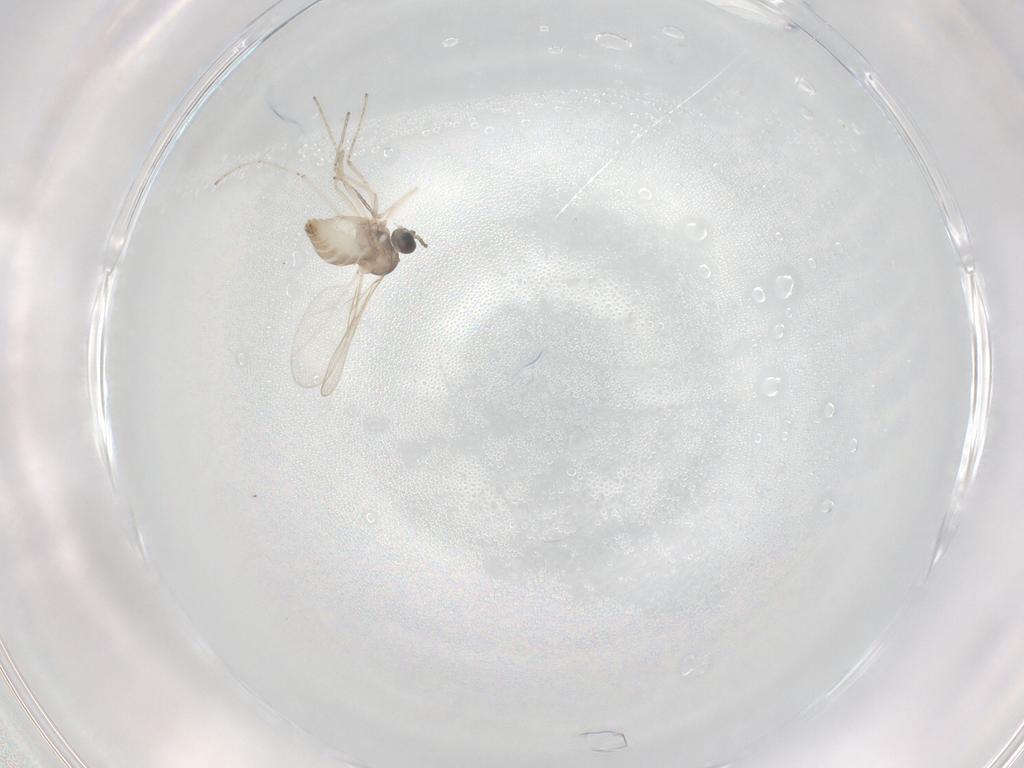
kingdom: Animalia
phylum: Arthropoda
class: Insecta
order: Diptera
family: Cecidomyiidae
